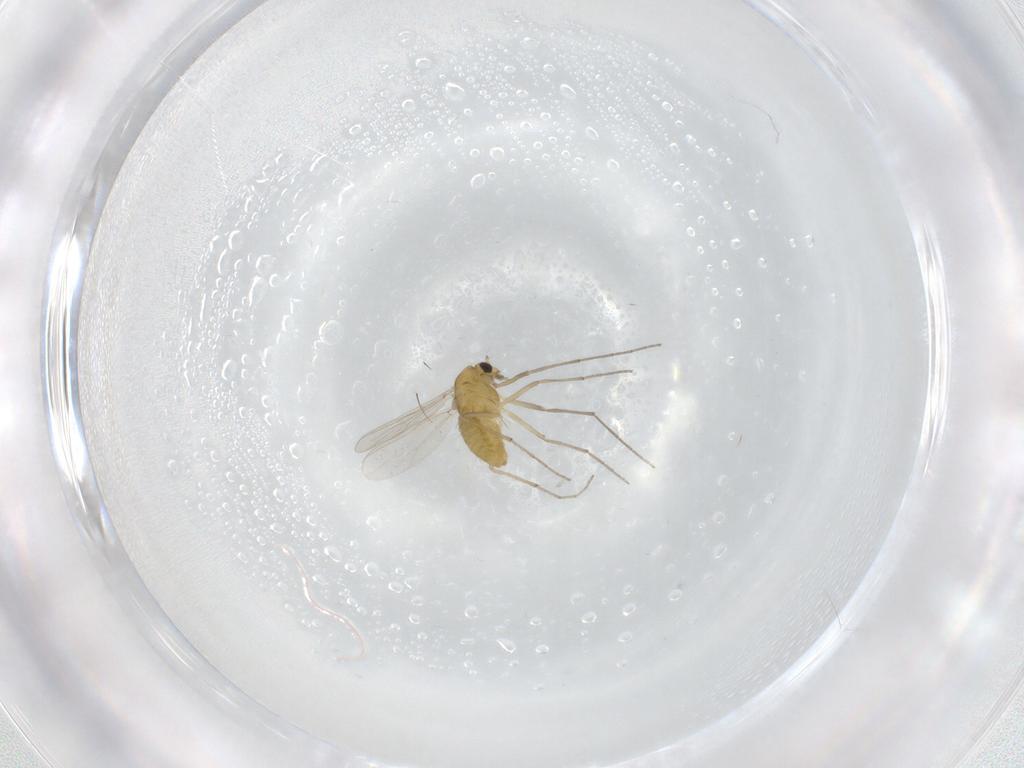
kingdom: Animalia
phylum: Arthropoda
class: Insecta
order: Diptera
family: Chironomidae
